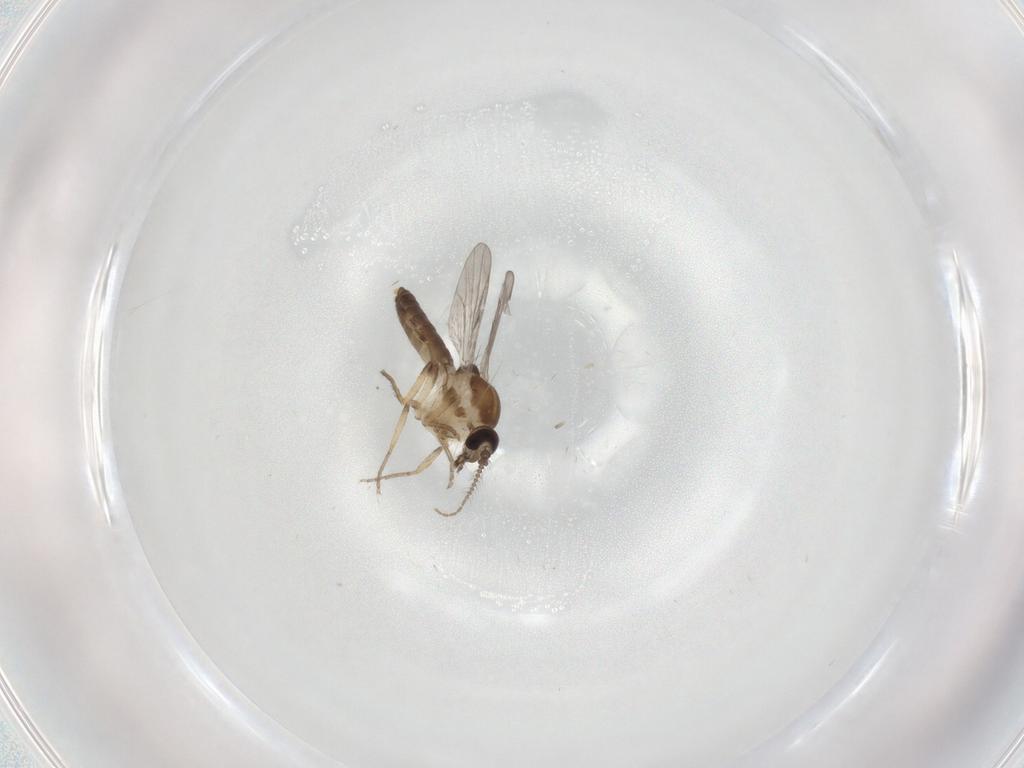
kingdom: Animalia
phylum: Arthropoda
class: Insecta
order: Diptera
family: Ceratopogonidae
